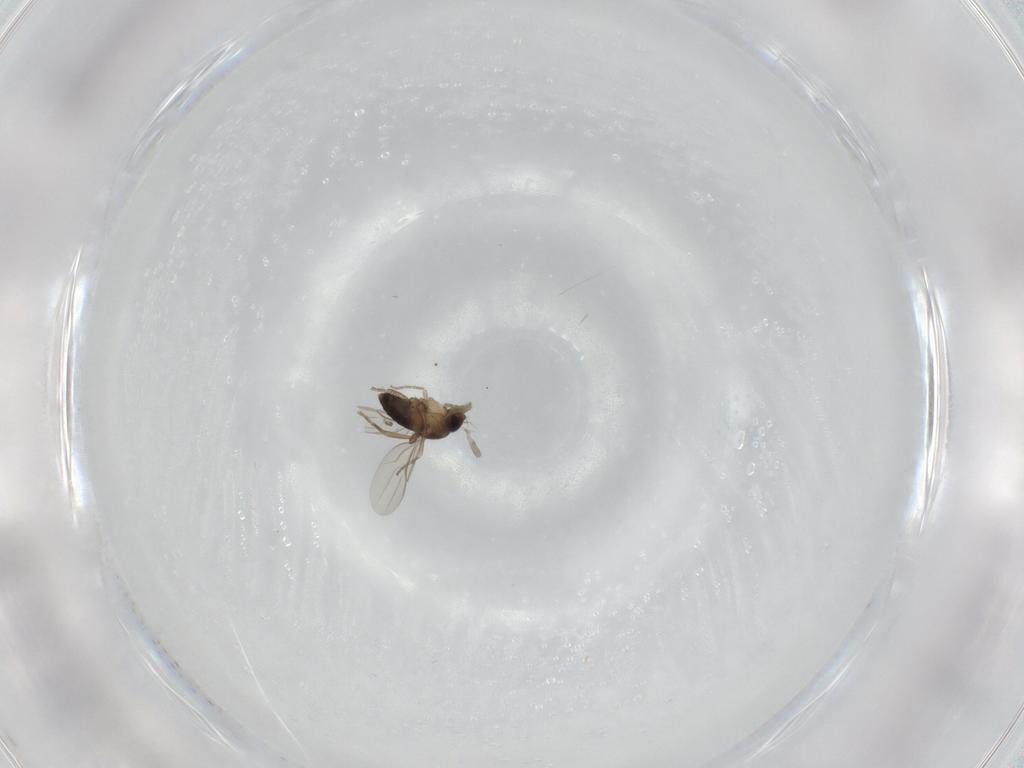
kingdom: Animalia
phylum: Arthropoda
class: Insecta
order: Diptera
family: Phoridae
